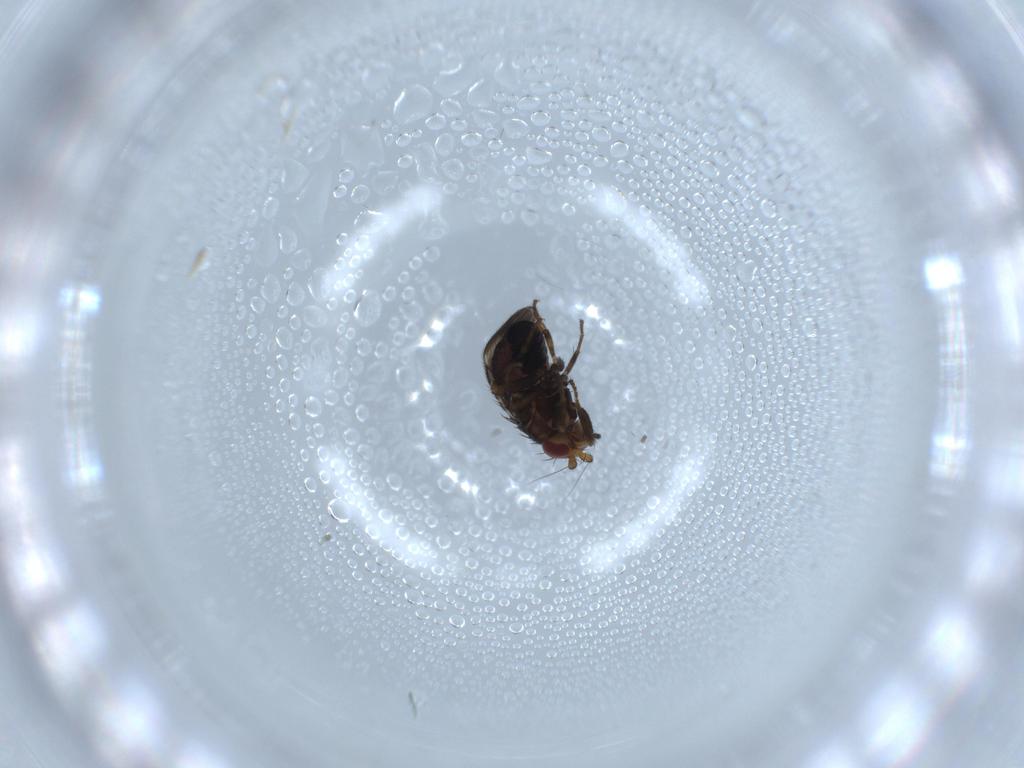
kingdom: Animalia
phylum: Arthropoda
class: Insecta
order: Diptera
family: Sphaeroceridae
